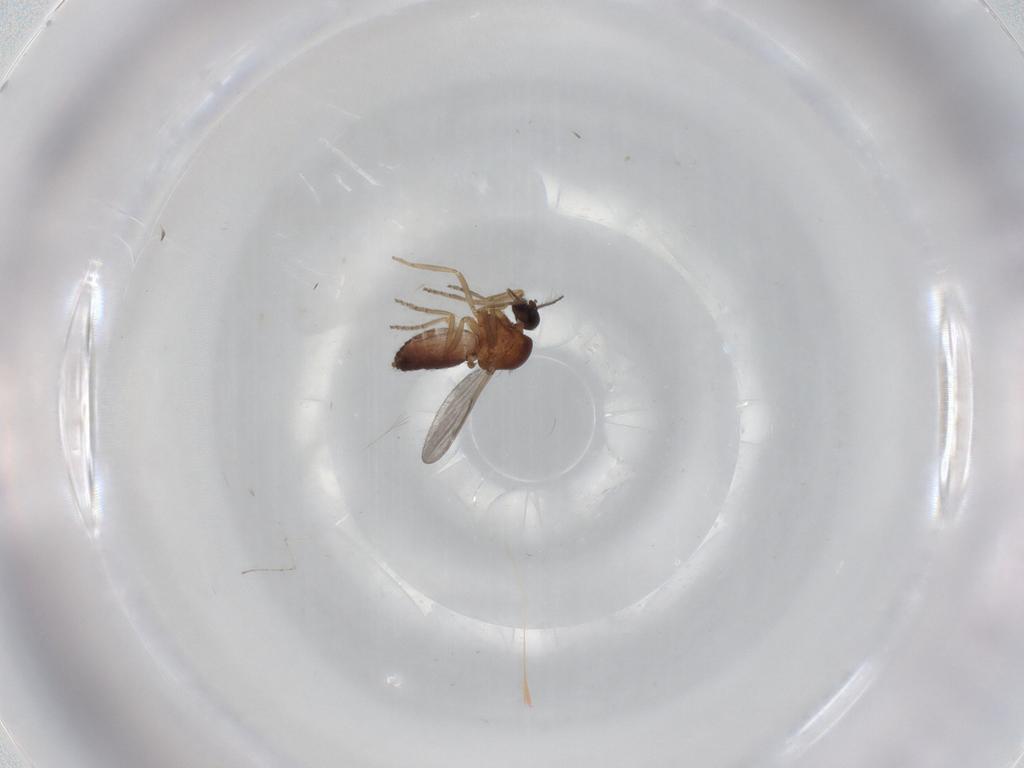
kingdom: Animalia
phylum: Arthropoda
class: Insecta
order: Diptera
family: Ceratopogonidae
